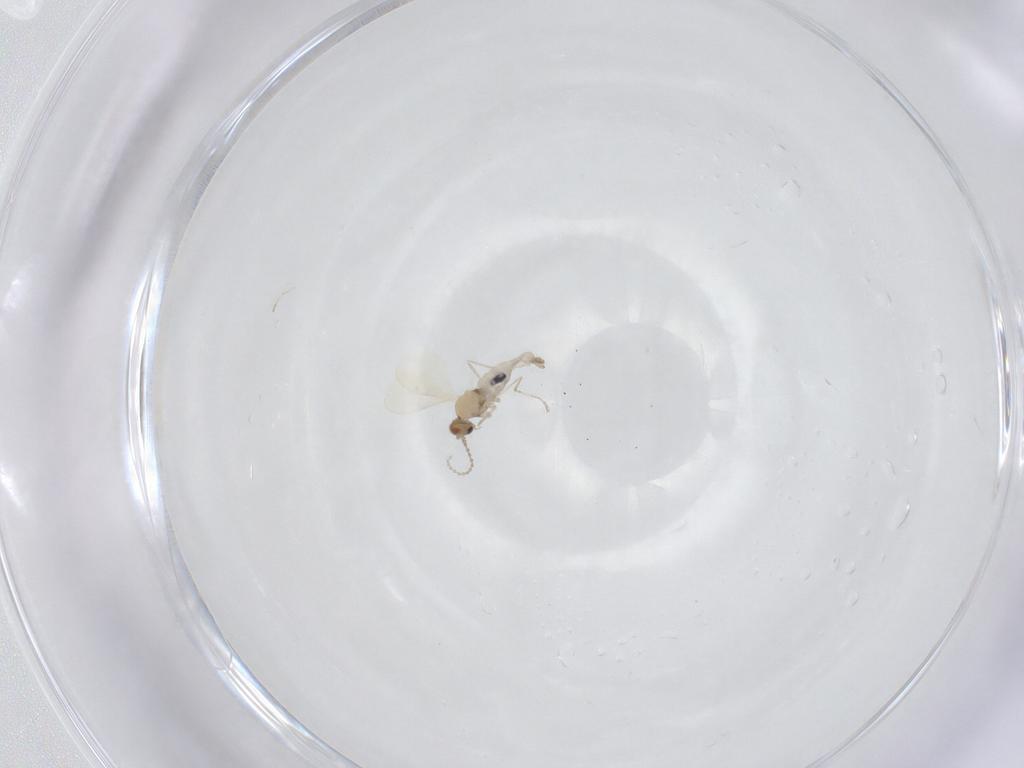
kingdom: Animalia
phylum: Arthropoda
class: Insecta
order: Diptera
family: Cecidomyiidae
